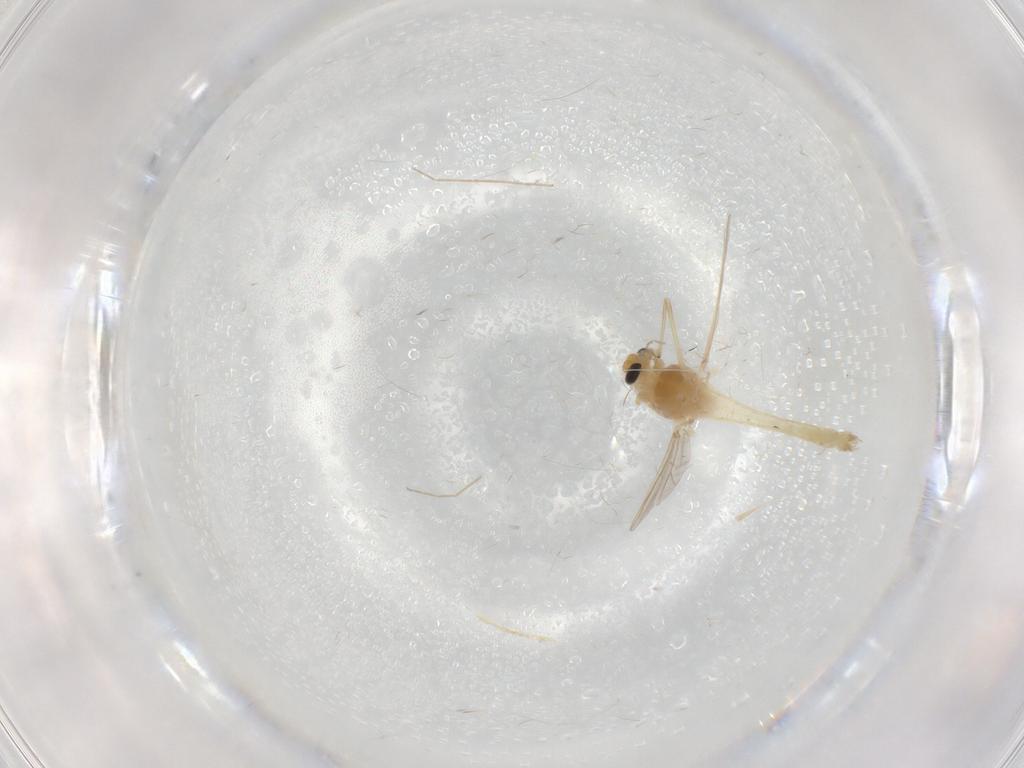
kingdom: Animalia
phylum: Arthropoda
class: Insecta
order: Diptera
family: Chironomidae
